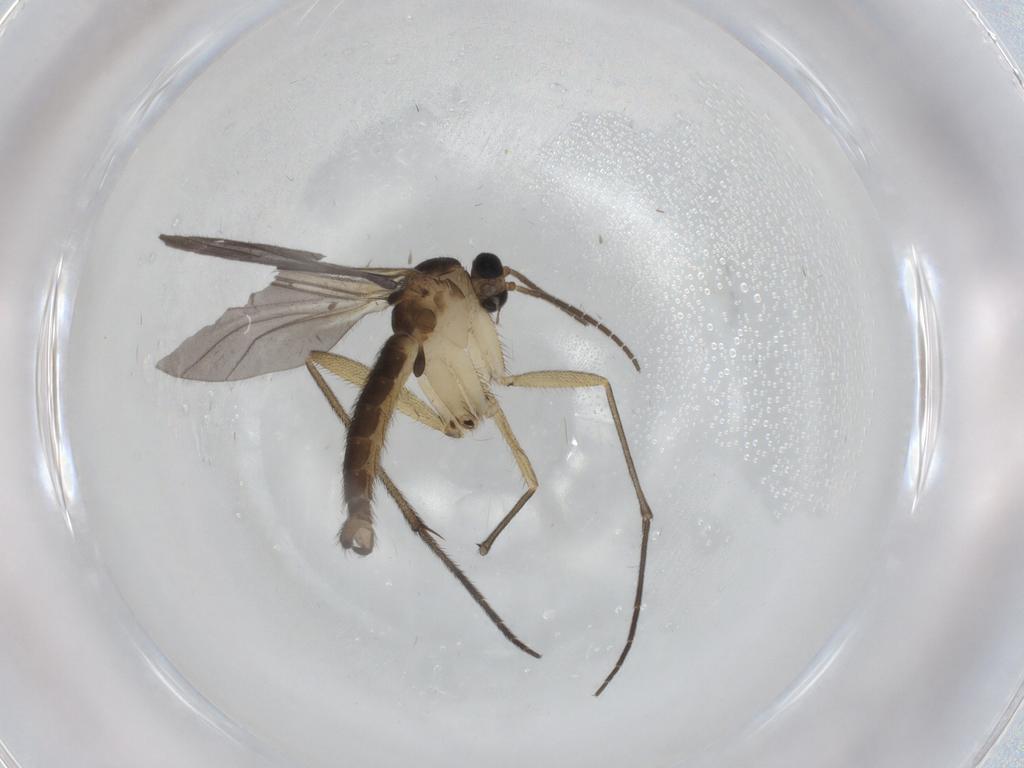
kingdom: Animalia
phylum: Arthropoda
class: Insecta
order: Diptera
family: Sciaridae
